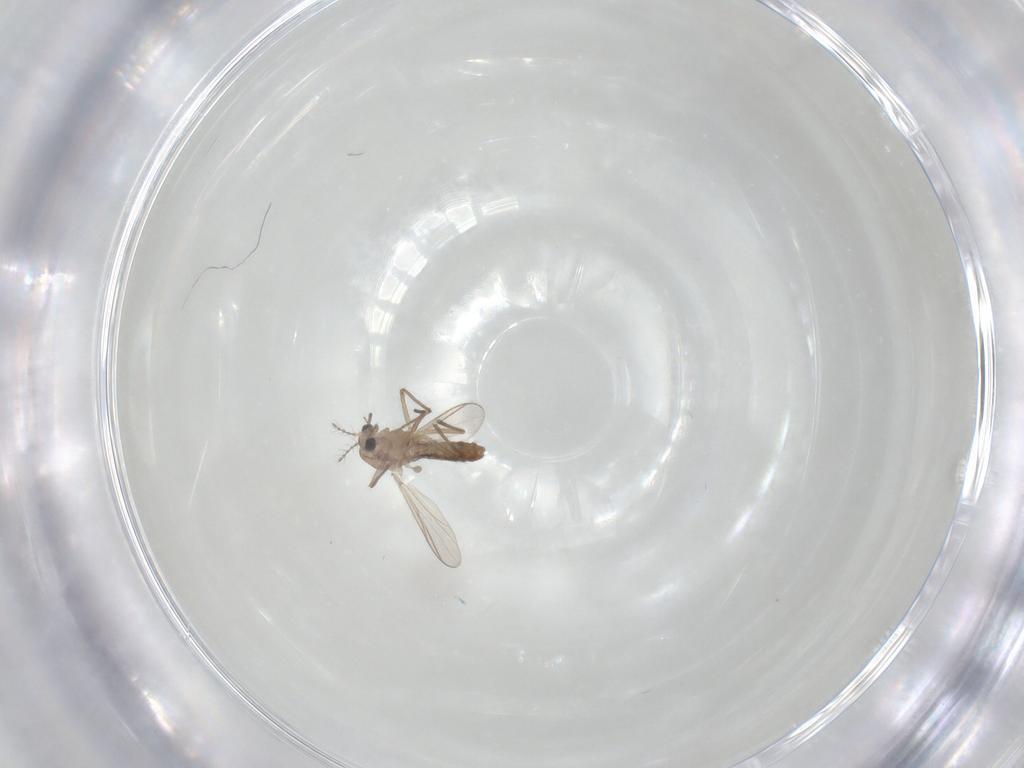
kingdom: Animalia
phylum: Arthropoda
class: Insecta
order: Diptera
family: Chironomidae
